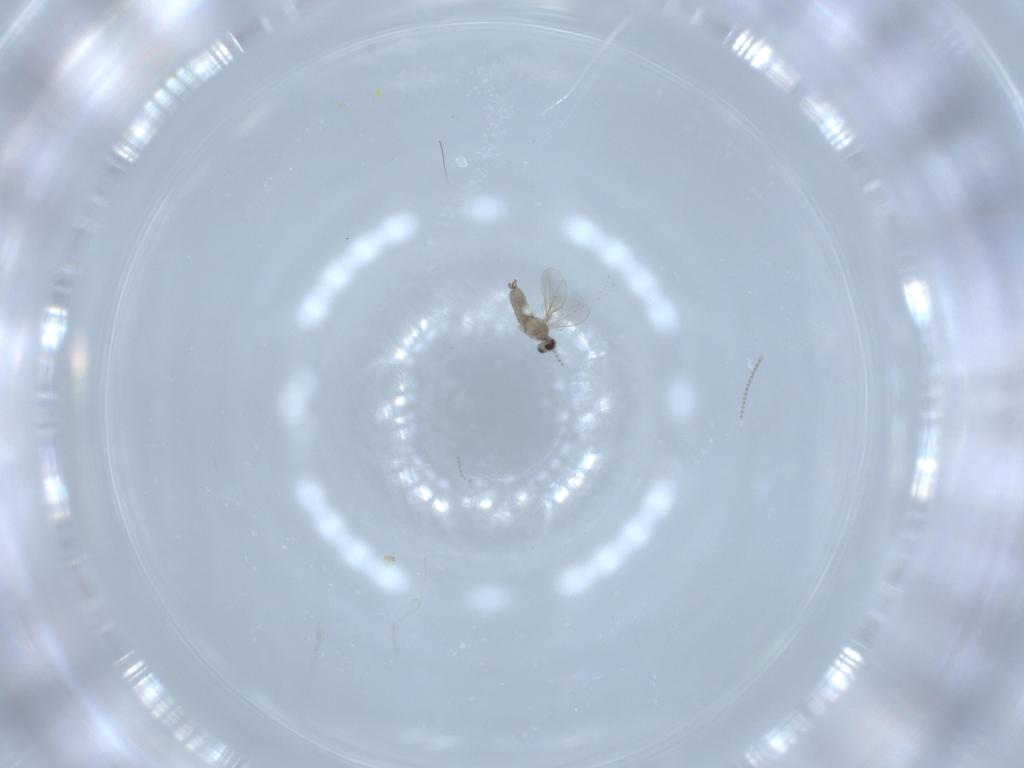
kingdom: Animalia
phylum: Arthropoda
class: Insecta
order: Diptera
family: Cecidomyiidae
